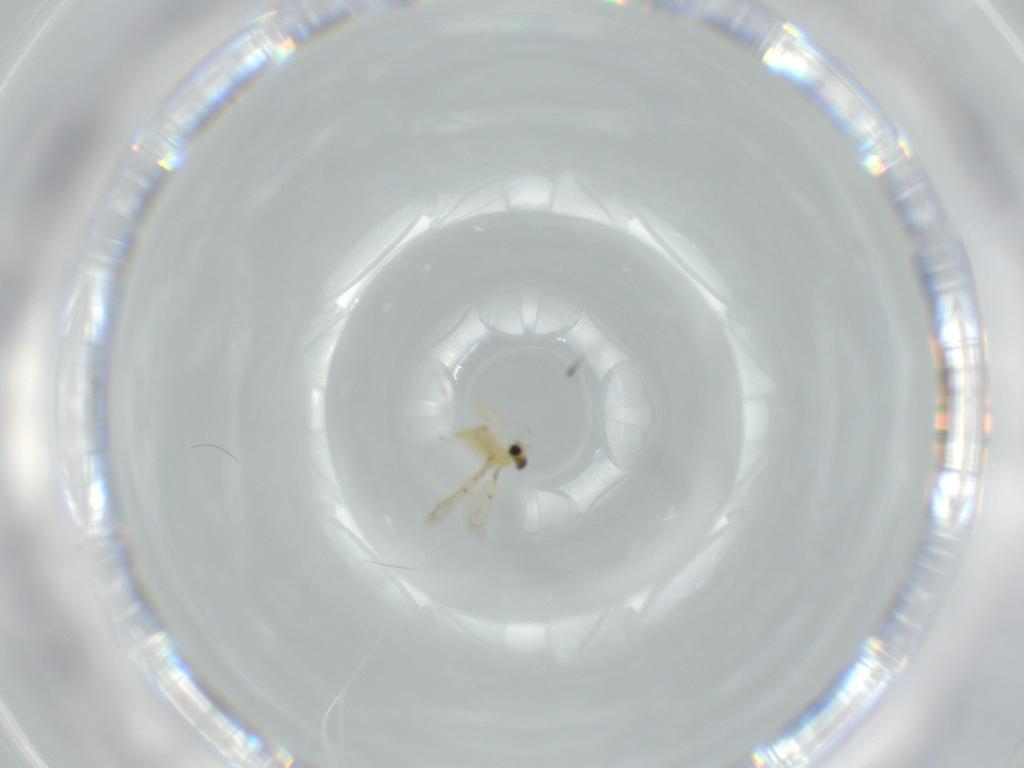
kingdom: Animalia
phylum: Arthropoda
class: Insecta
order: Hymenoptera
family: Trichogrammatidae
